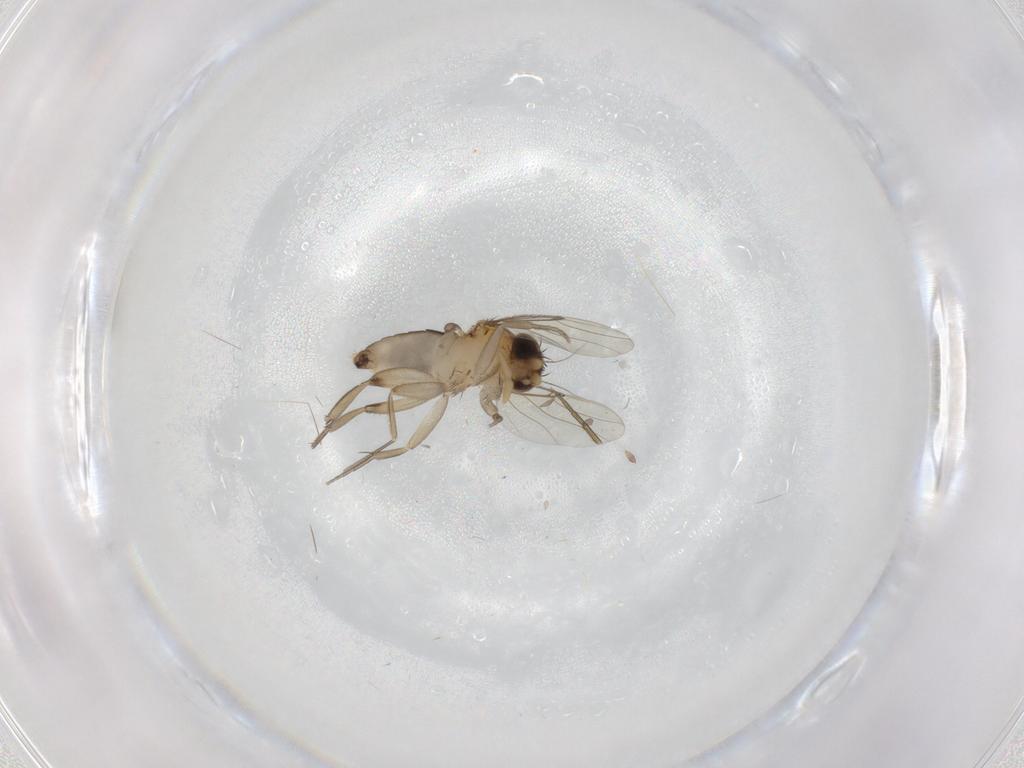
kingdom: Animalia
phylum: Arthropoda
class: Insecta
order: Diptera
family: Phoridae
